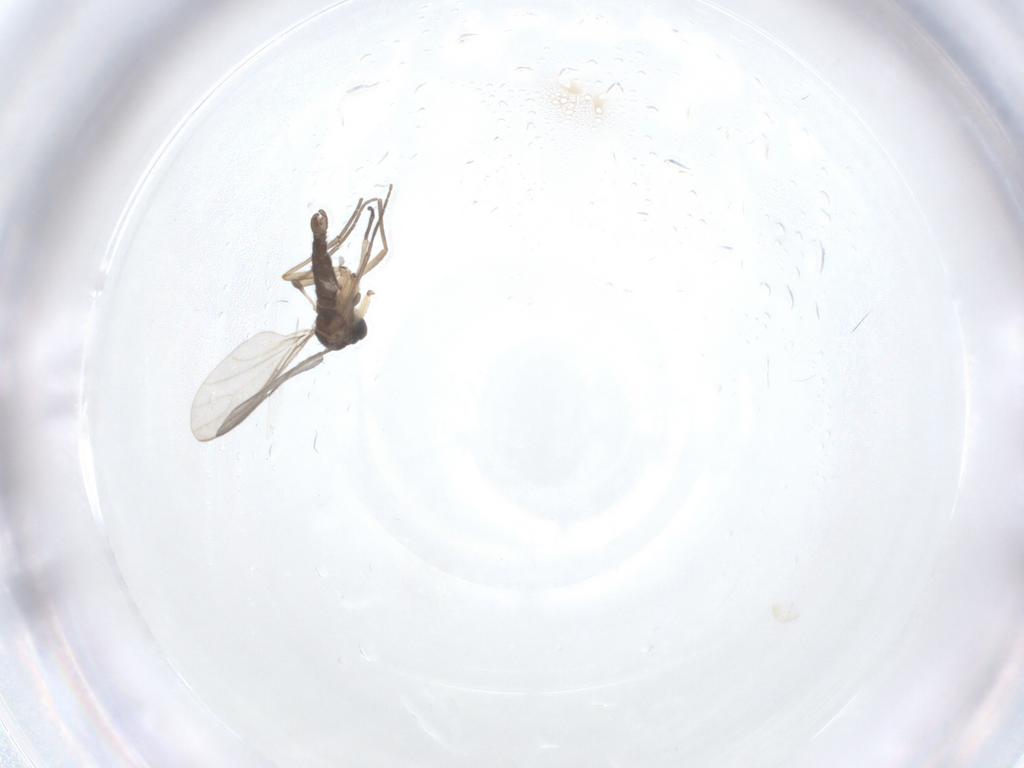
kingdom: Animalia
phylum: Arthropoda
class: Insecta
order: Diptera
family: Sciaridae
